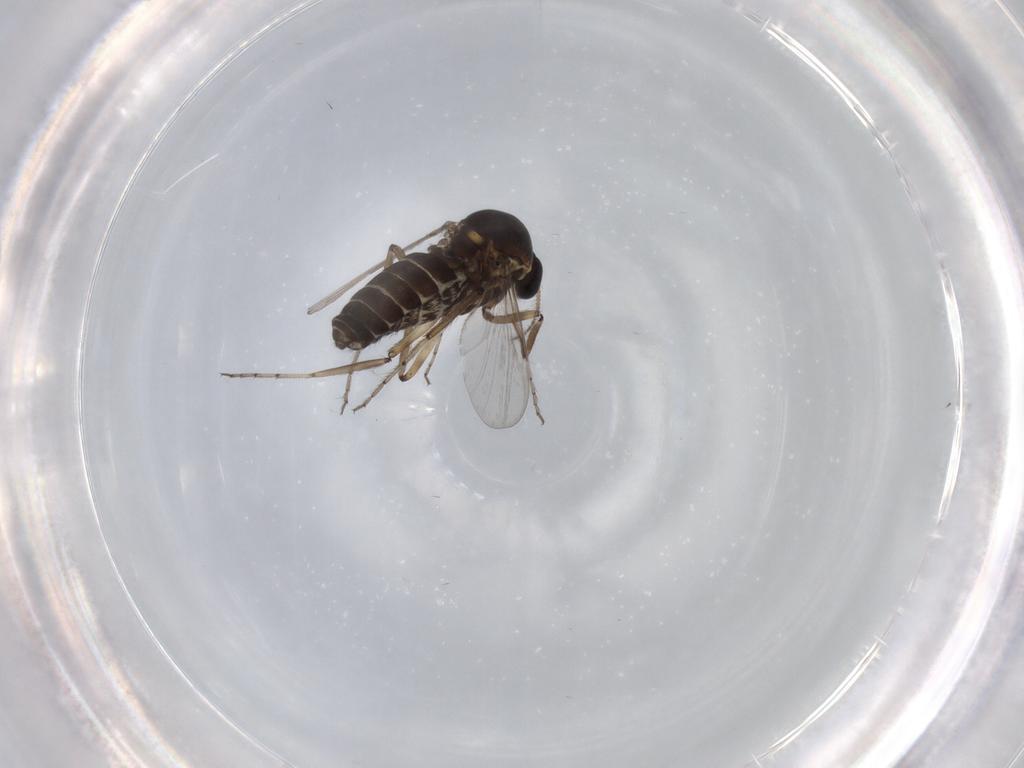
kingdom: Animalia
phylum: Arthropoda
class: Insecta
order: Diptera
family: Ceratopogonidae
